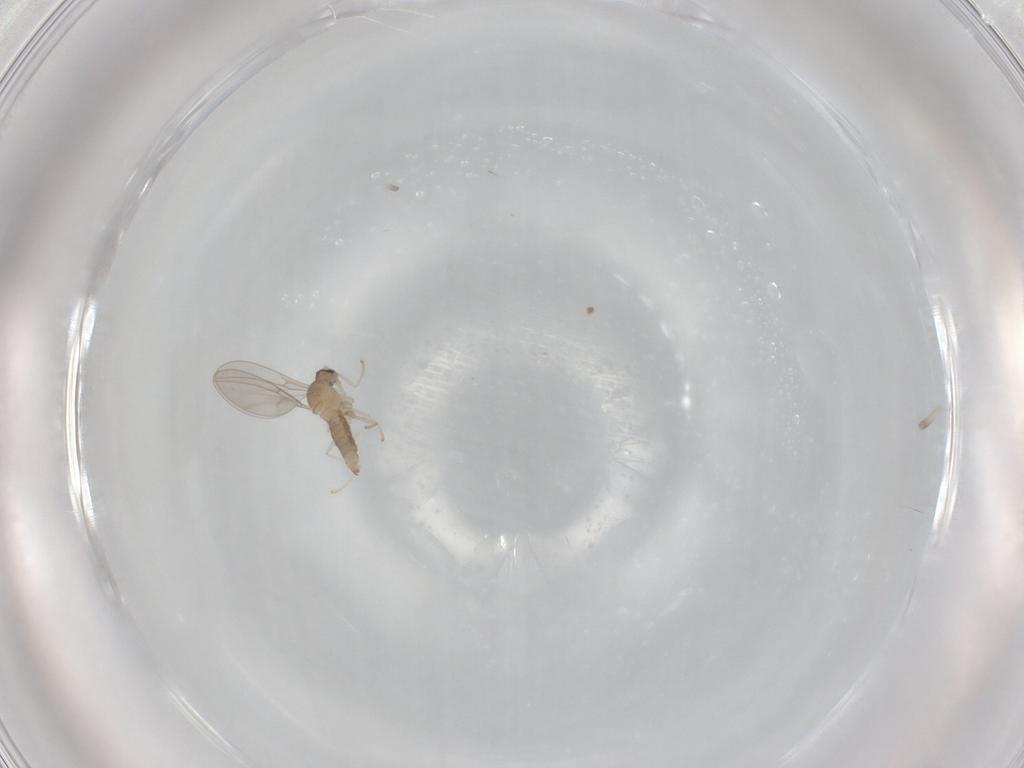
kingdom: Animalia
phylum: Arthropoda
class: Insecta
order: Diptera
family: Cecidomyiidae
